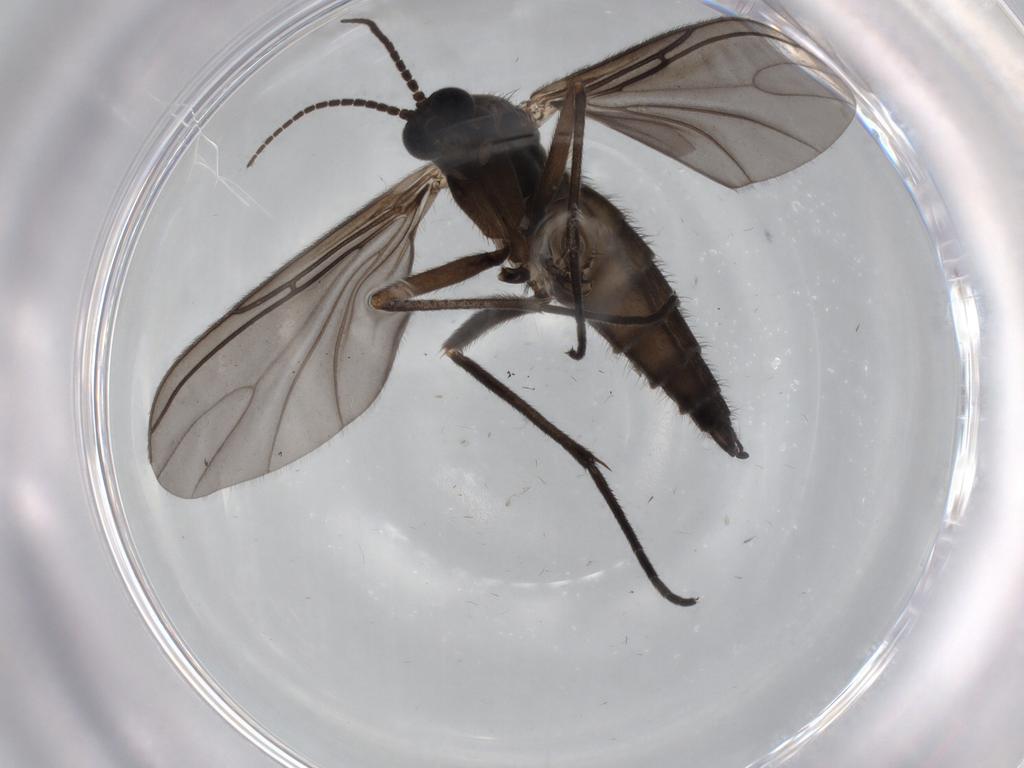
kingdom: Animalia
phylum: Arthropoda
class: Insecta
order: Diptera
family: Sciaridae
